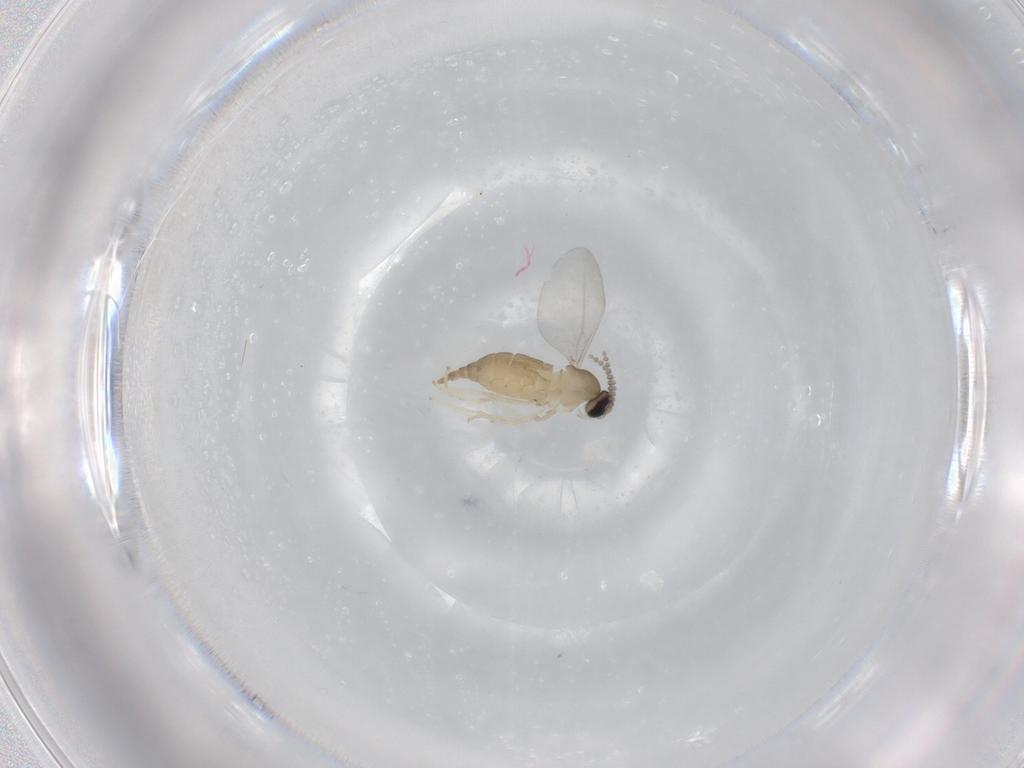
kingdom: Animalia
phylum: Arthropoda
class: Insecta
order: Diptera
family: Cecidomyiidae
